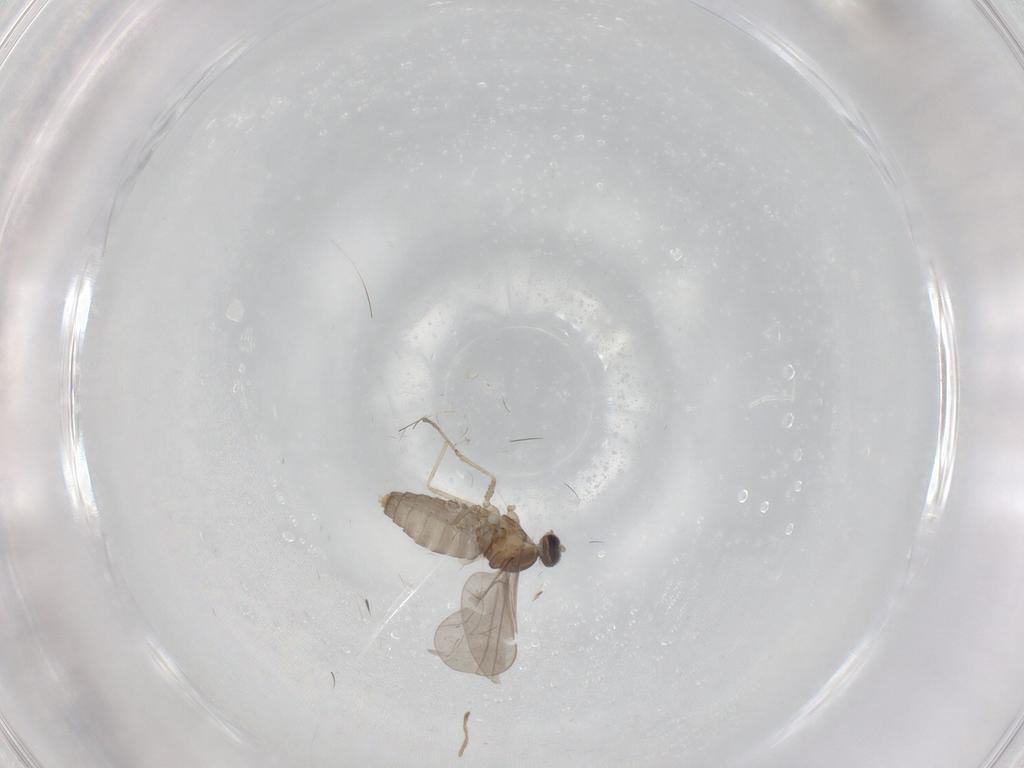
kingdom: Animalia
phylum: Arthropoda
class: Insecta
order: Diptera
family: Cecidomyiidae
